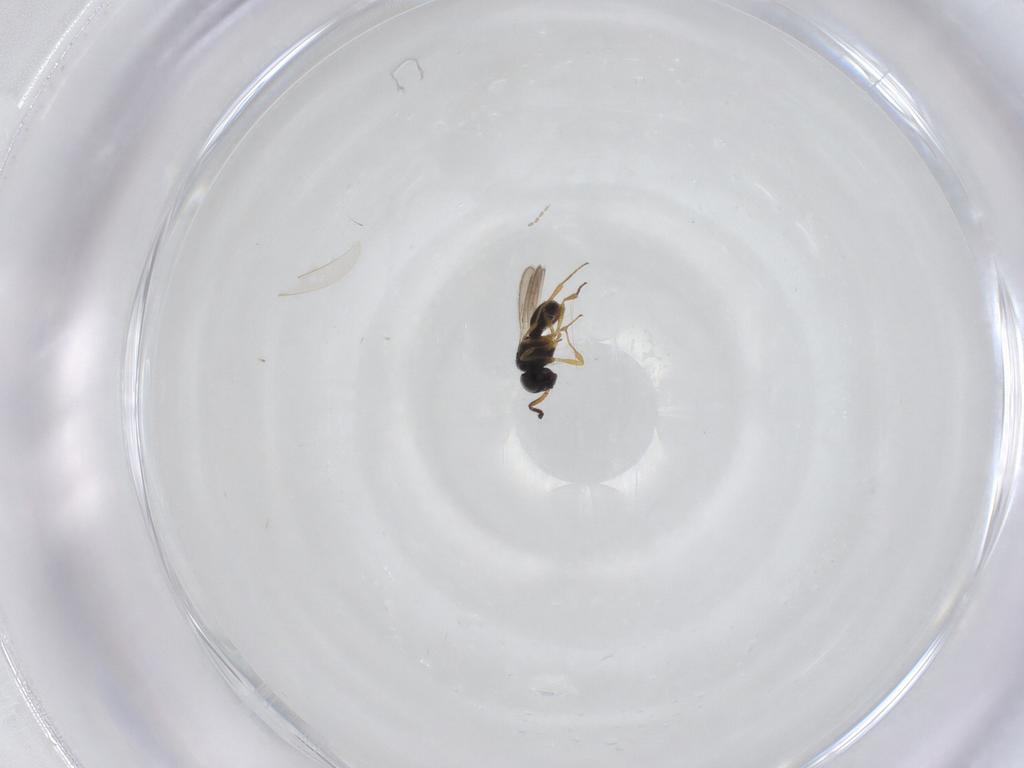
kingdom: Animalia
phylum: Arthropoda
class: Insecta
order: Hymenoptera
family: Scelionidae
